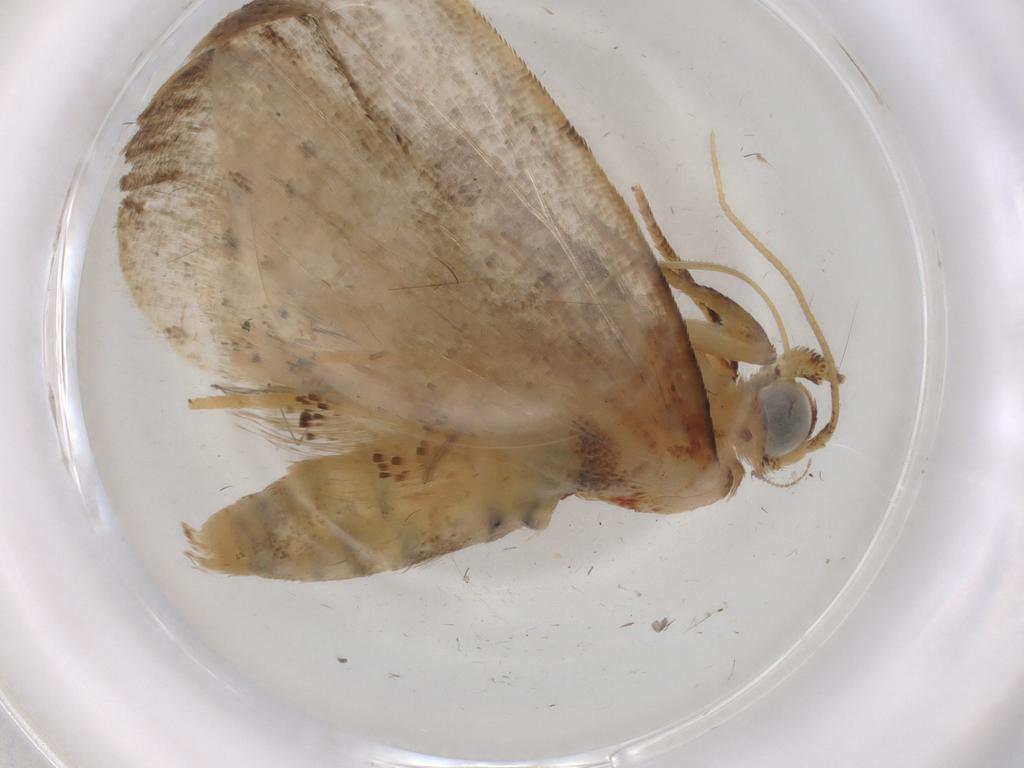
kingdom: Animalia
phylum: Arthropoda
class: Insecta
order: Lepidoptera
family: Erebidae
